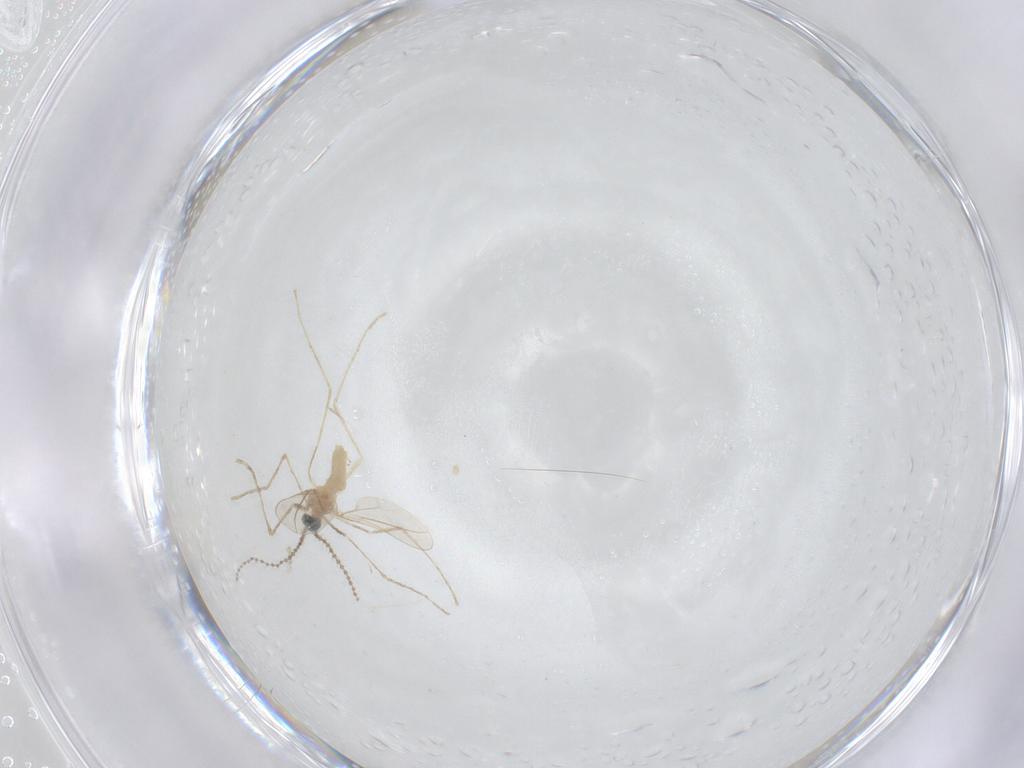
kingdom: Animalia
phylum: Arthropoda
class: Insecta
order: Diptera
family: Cecidomyiidae
